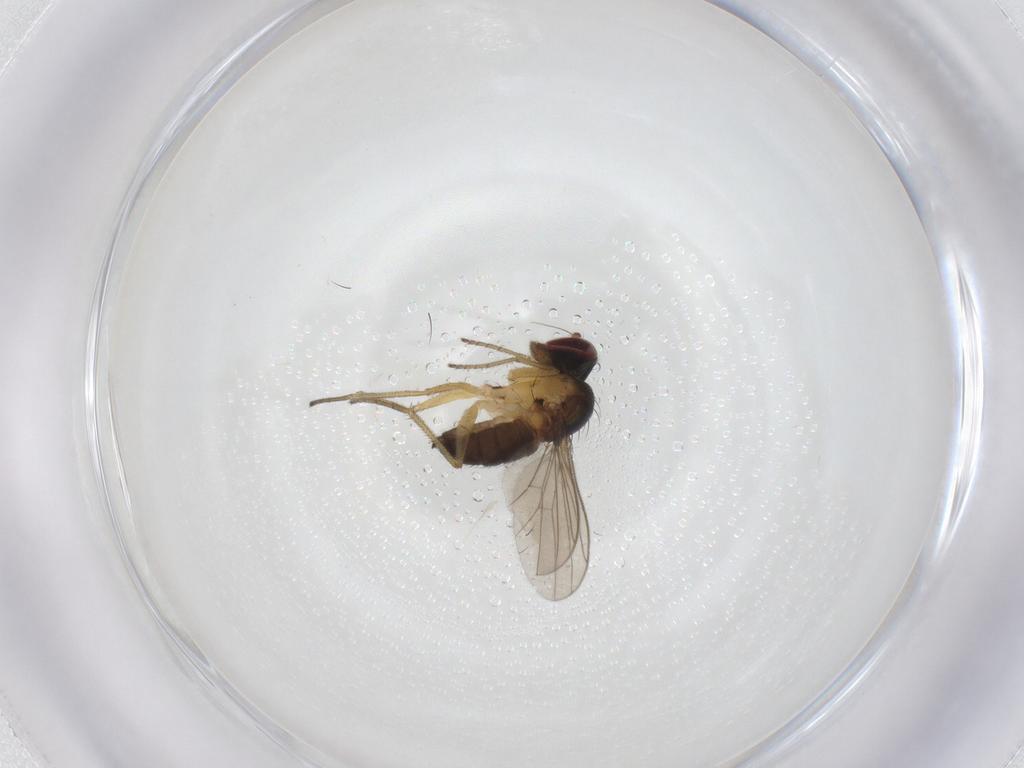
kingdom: Animalia
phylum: Arthropoda
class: Insecta
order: Diptera
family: Dolichopodidae
